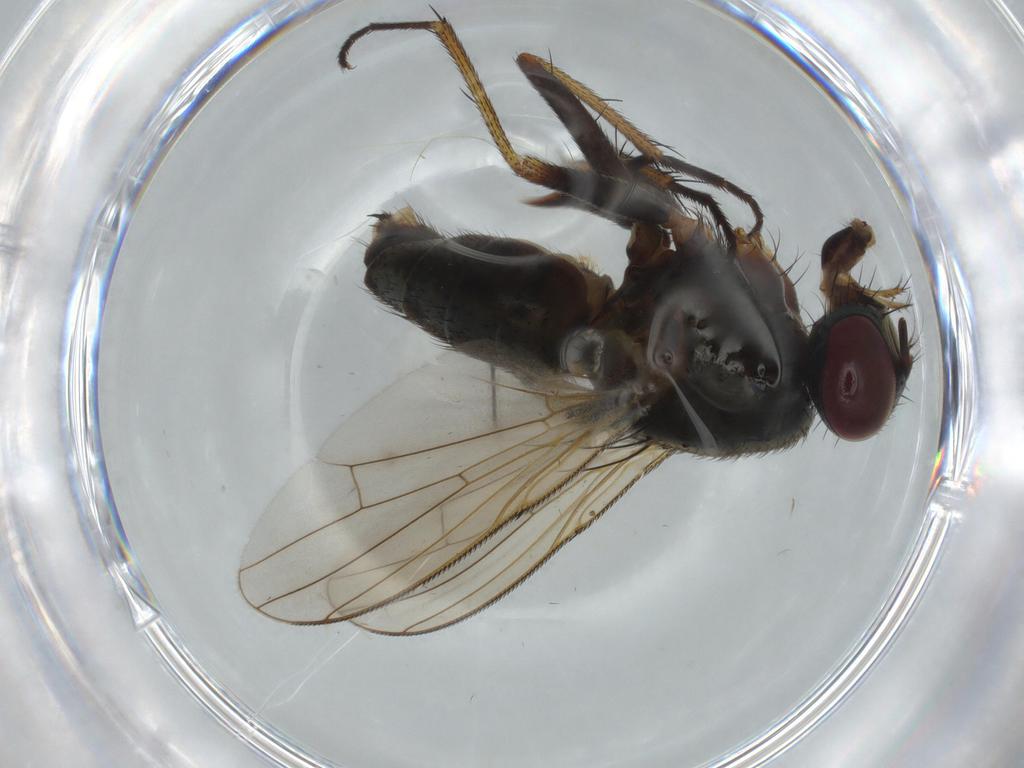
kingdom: Animalia
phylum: Arthropoda
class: Insecta
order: Diptera
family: Dolichopodidae
